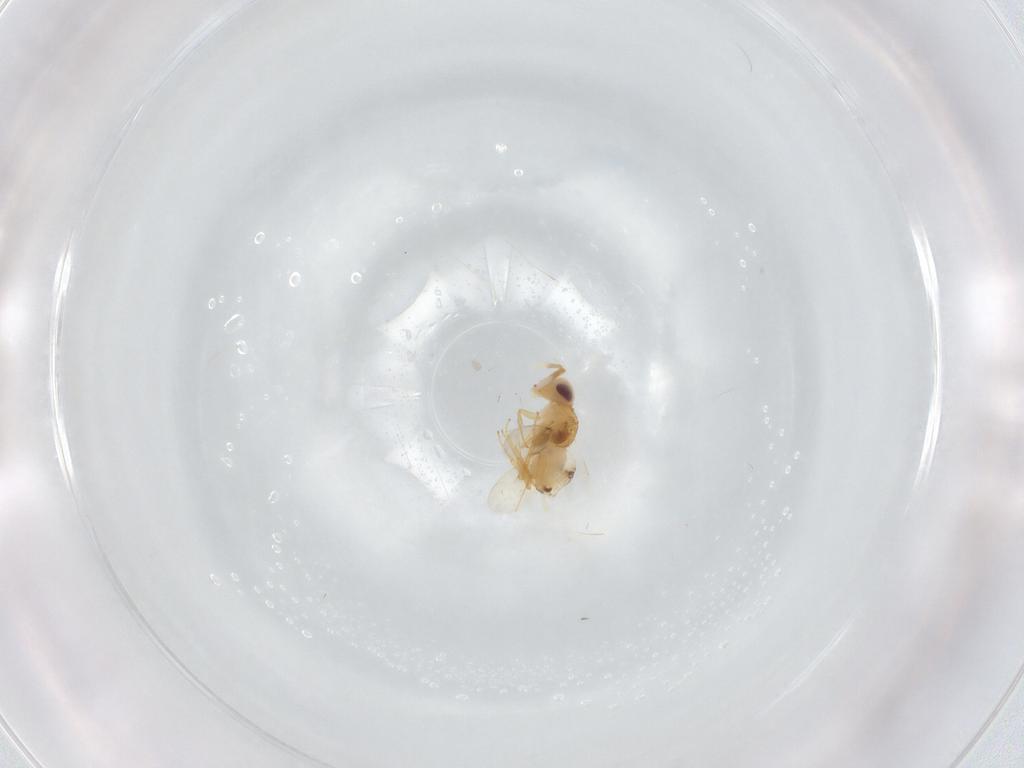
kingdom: Animalia
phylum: Arthropoda
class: Insecta
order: Hymenoptera
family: Encyrtidae
